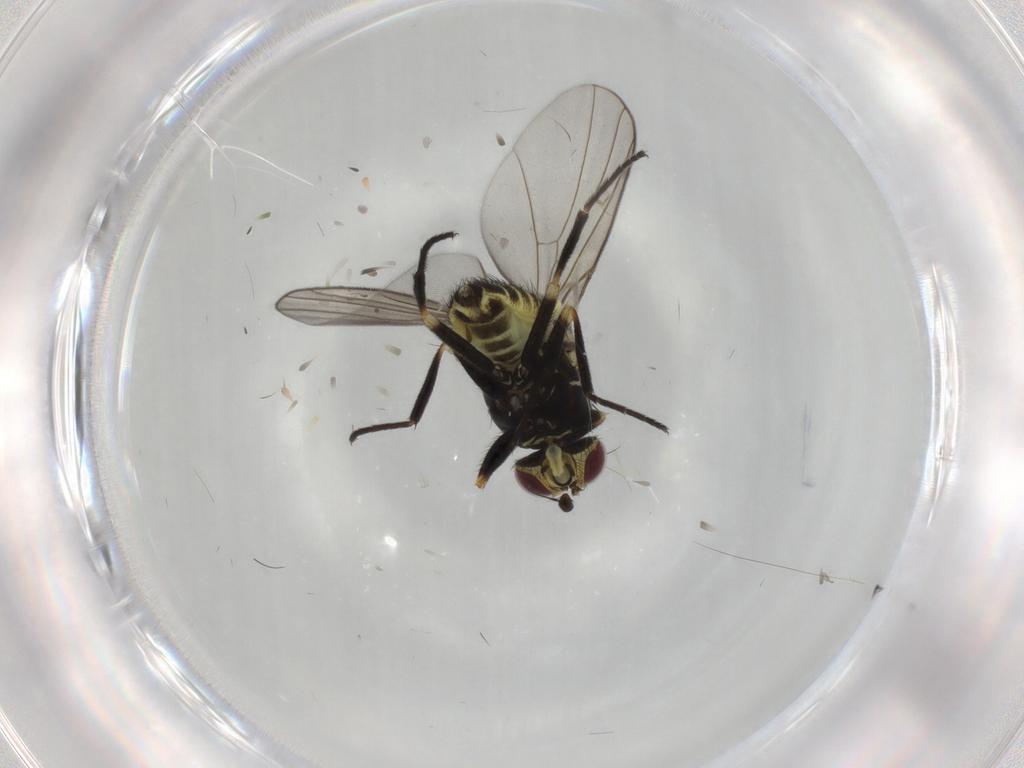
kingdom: Animalia
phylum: Arthropoda
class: Insecta
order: Diptera
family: Agromyzidae
